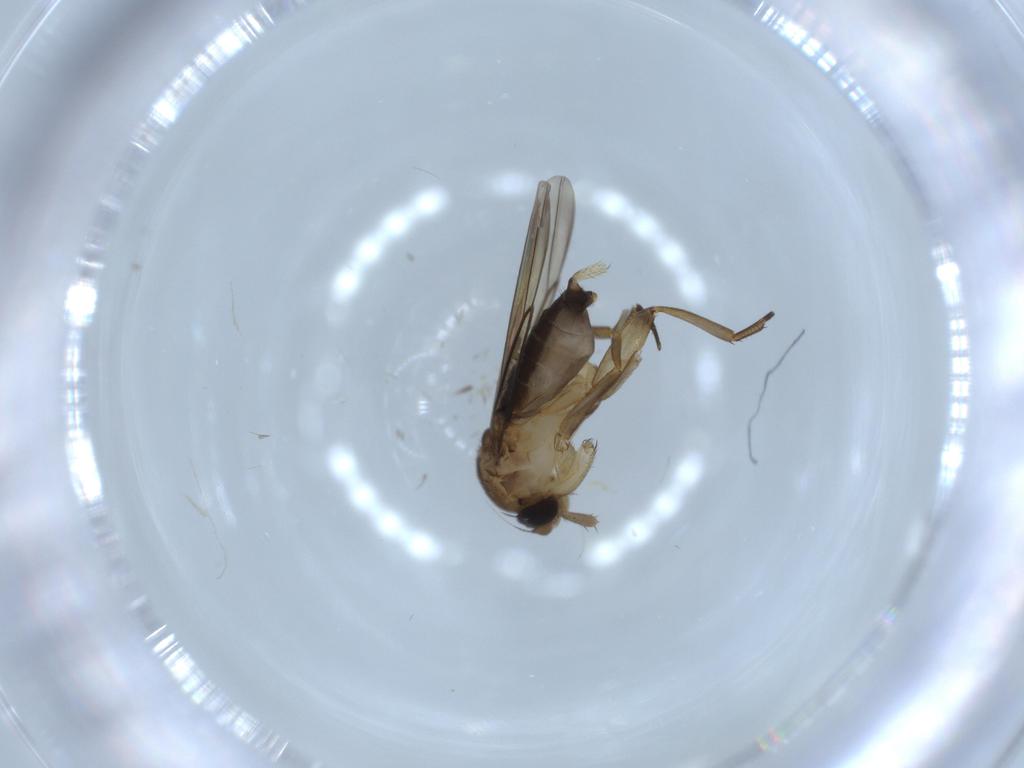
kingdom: Animalia
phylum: Arthropoda
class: Insecta
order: Diptera
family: Phoridae
